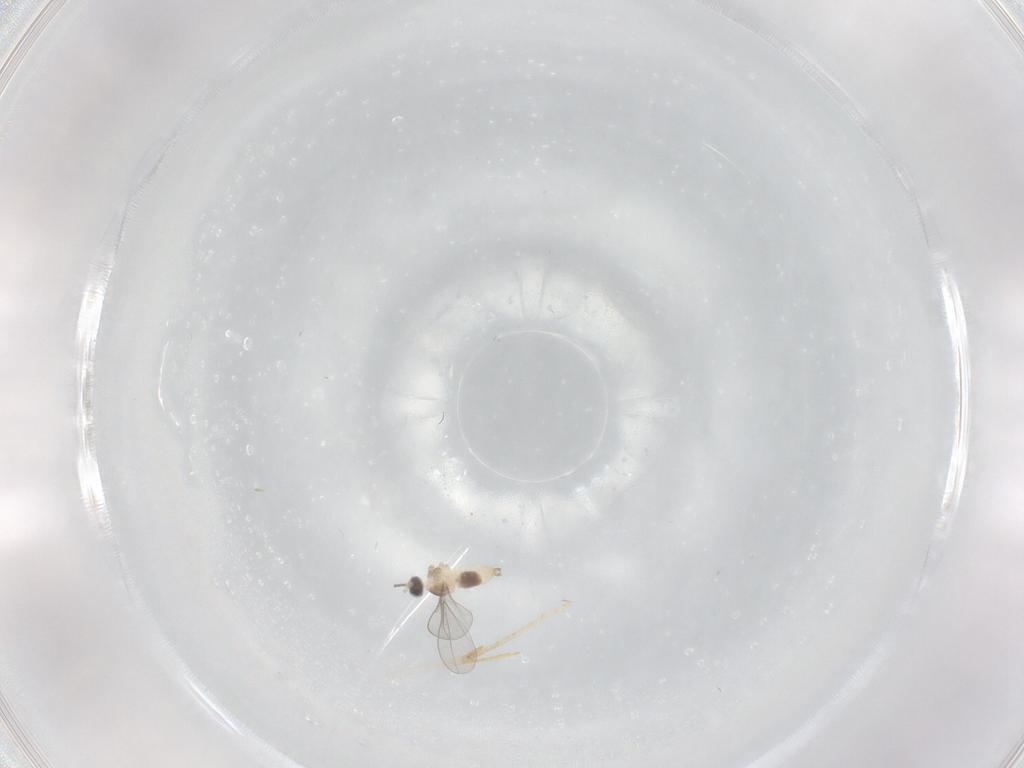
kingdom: Animalia
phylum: Arthropoda
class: Insecta
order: Diptera
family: Cecidomyiidae
